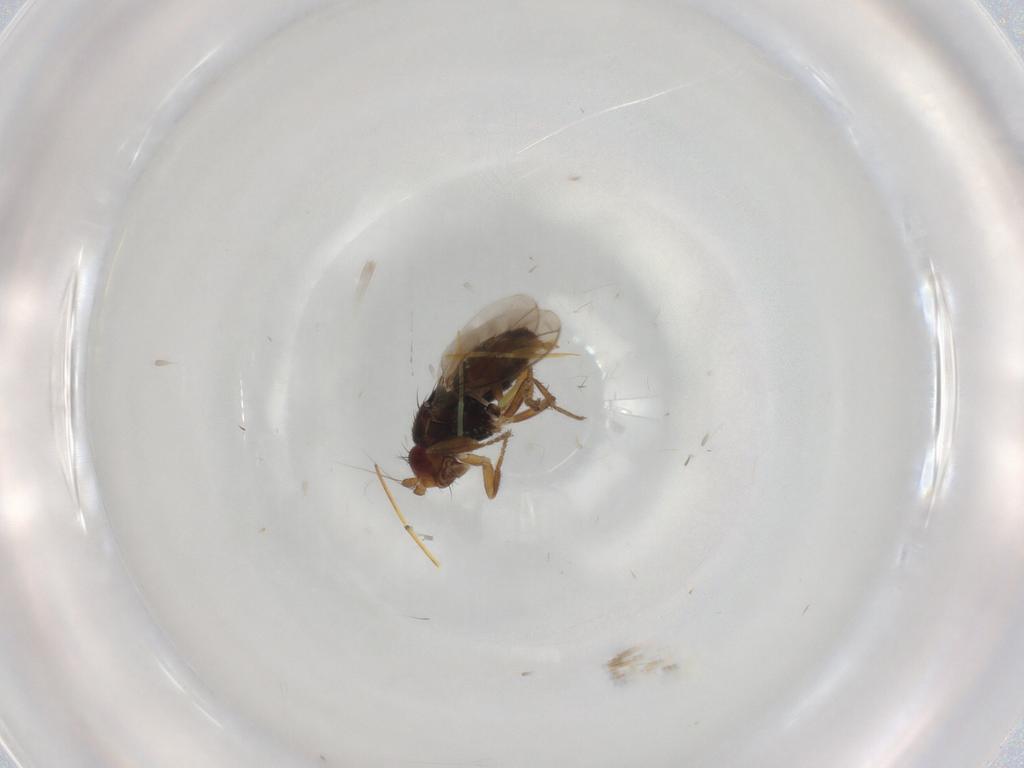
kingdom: Animalia
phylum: Arthropoda
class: Insecta
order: Diptera
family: Sphaeroceridae
